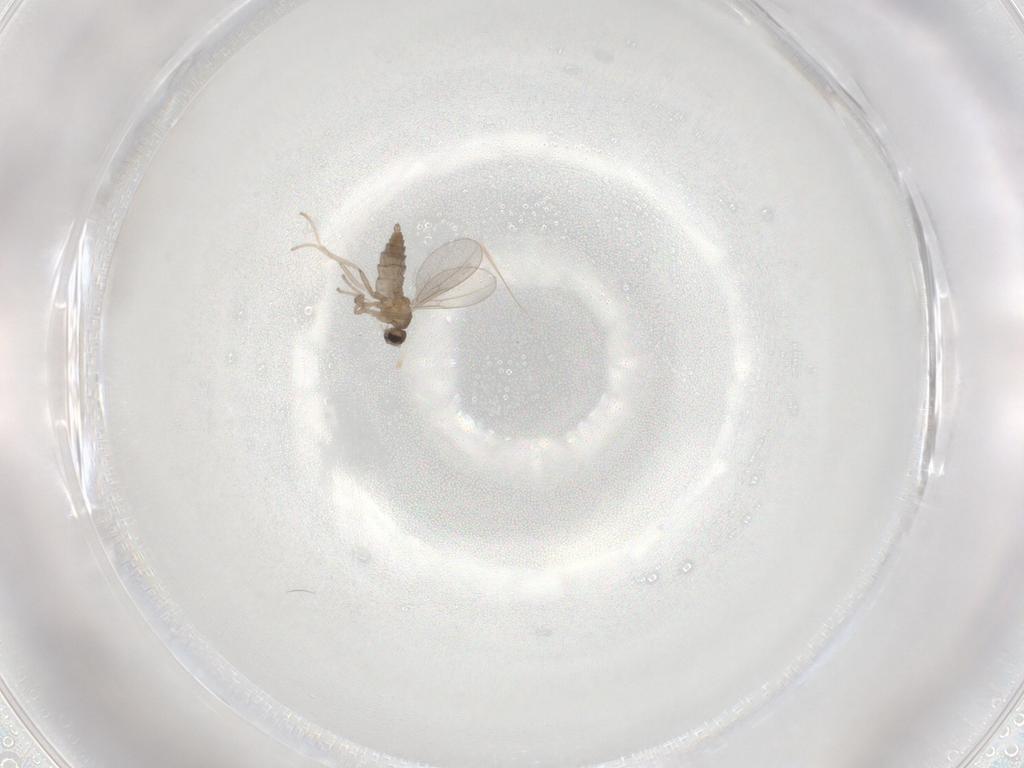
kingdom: Animalia
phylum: Arthropoda
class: Insecta
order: Diptera
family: Cecidomyiidae
